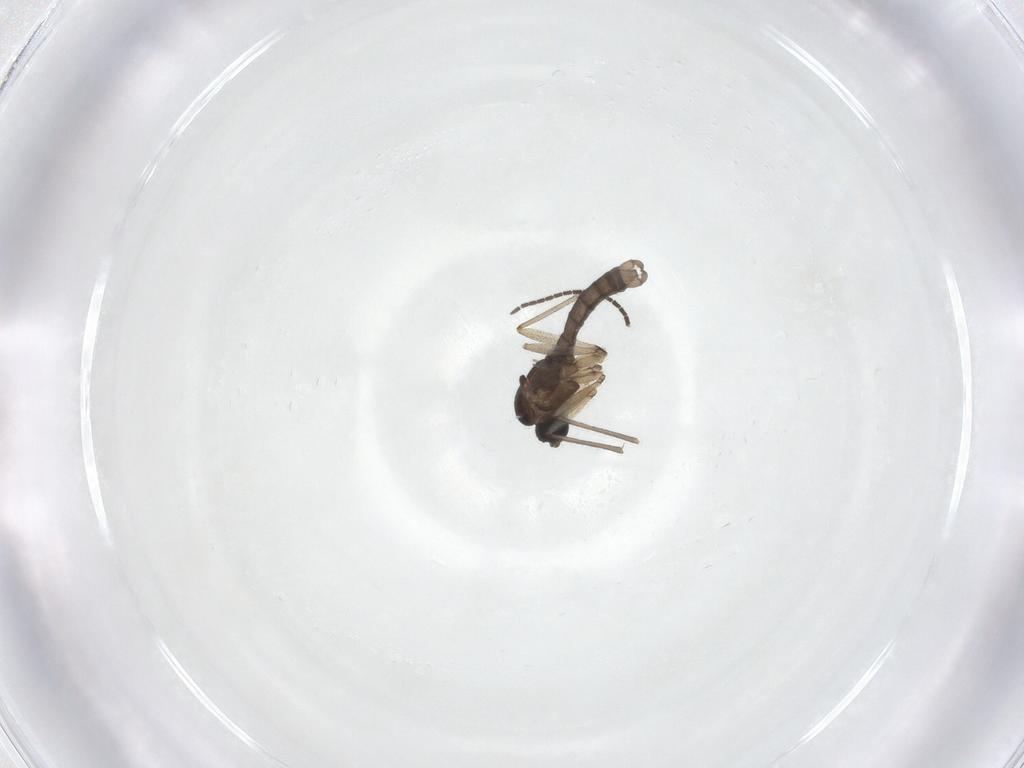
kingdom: Animalia
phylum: Arthropoda
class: Insecta
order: Diptera
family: Sciaridae
